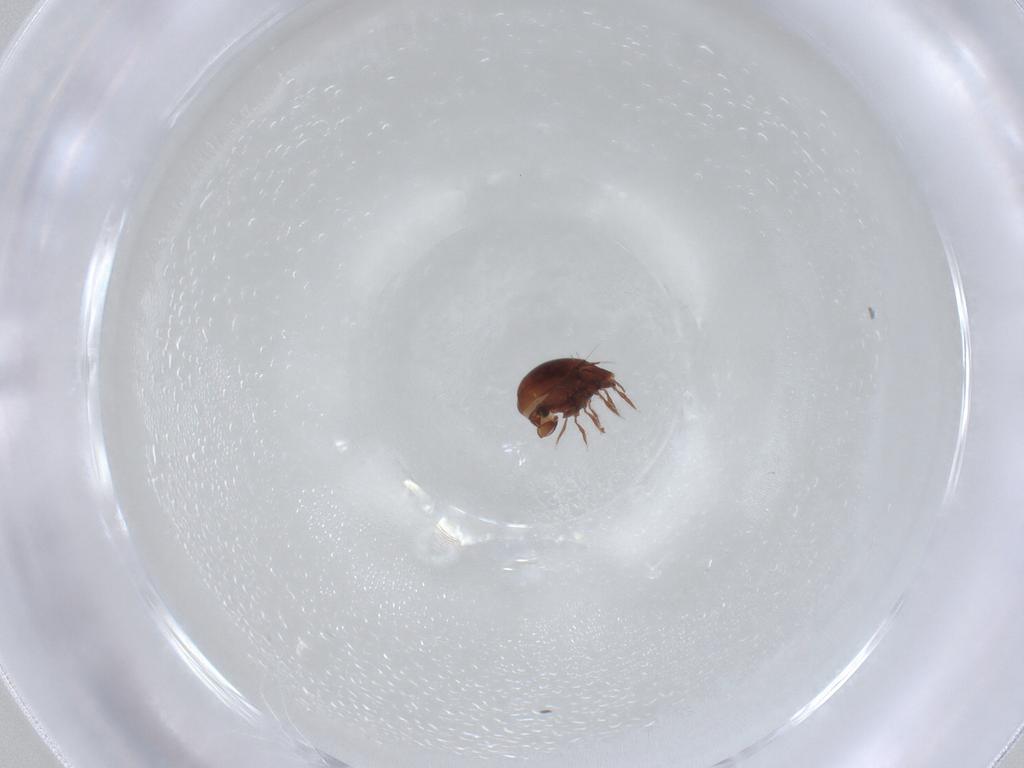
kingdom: Animalia
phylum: Arthropoda
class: Arachnida
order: Sarcoptiformes
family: Ceratozetidae
